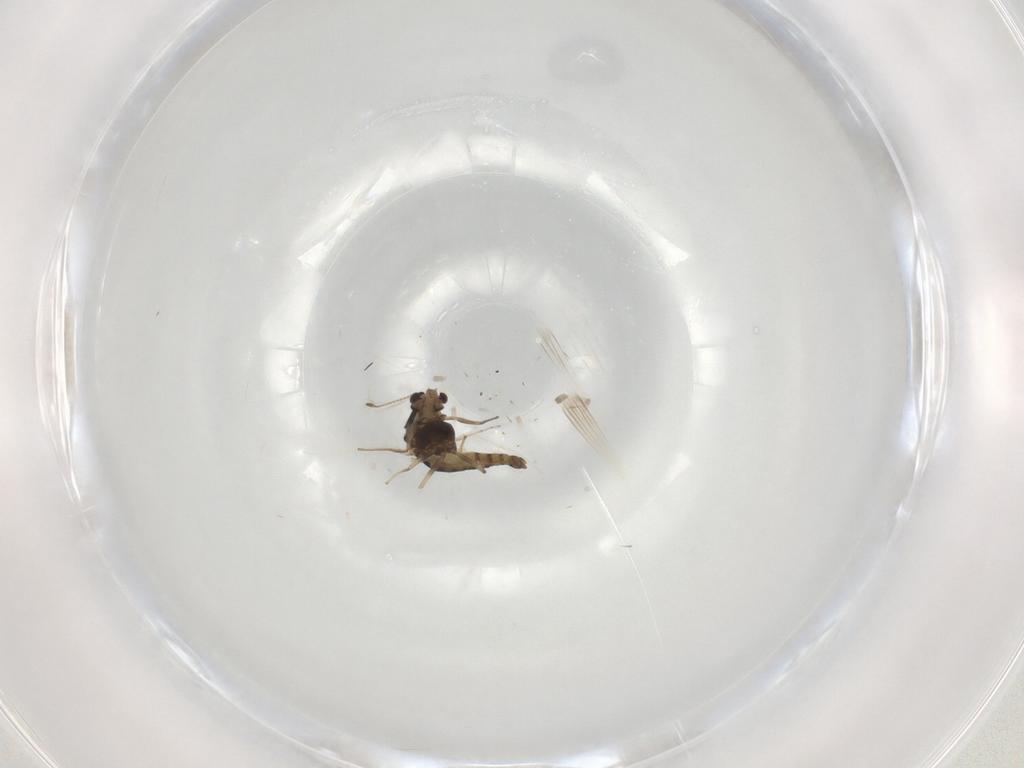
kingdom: Animalia
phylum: Arthropoda
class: Insecta
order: Diptera
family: Chironomidae
